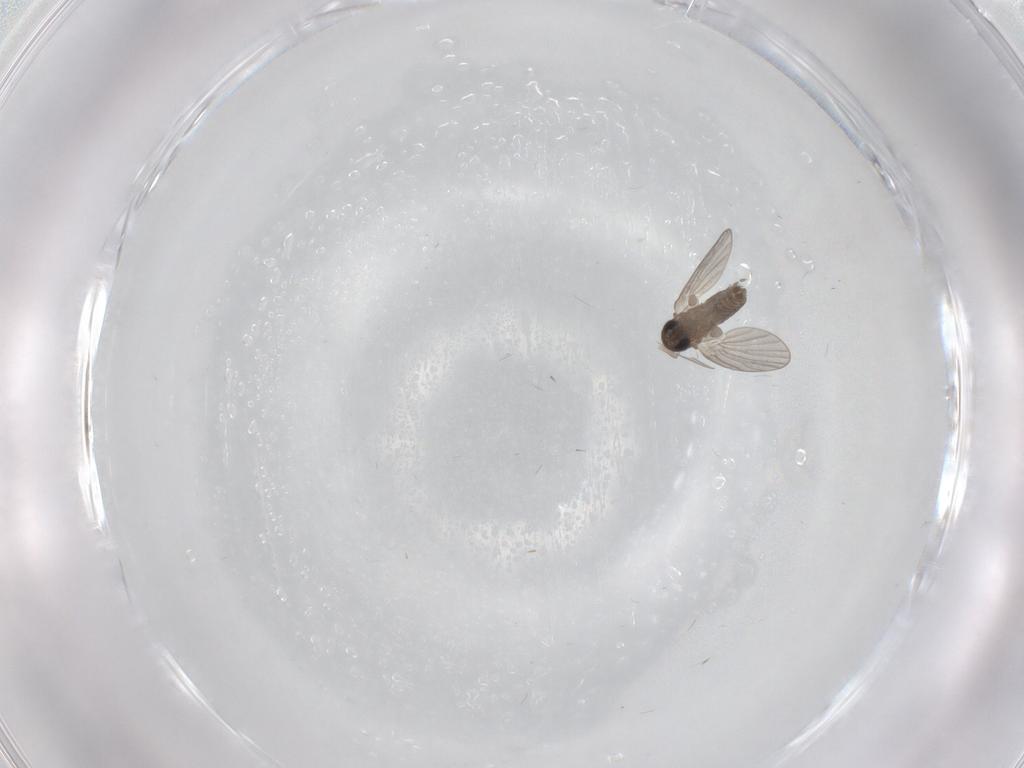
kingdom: Animalia
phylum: Arthropoda
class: Insecta
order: Diptera
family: Cecidomyiidae
